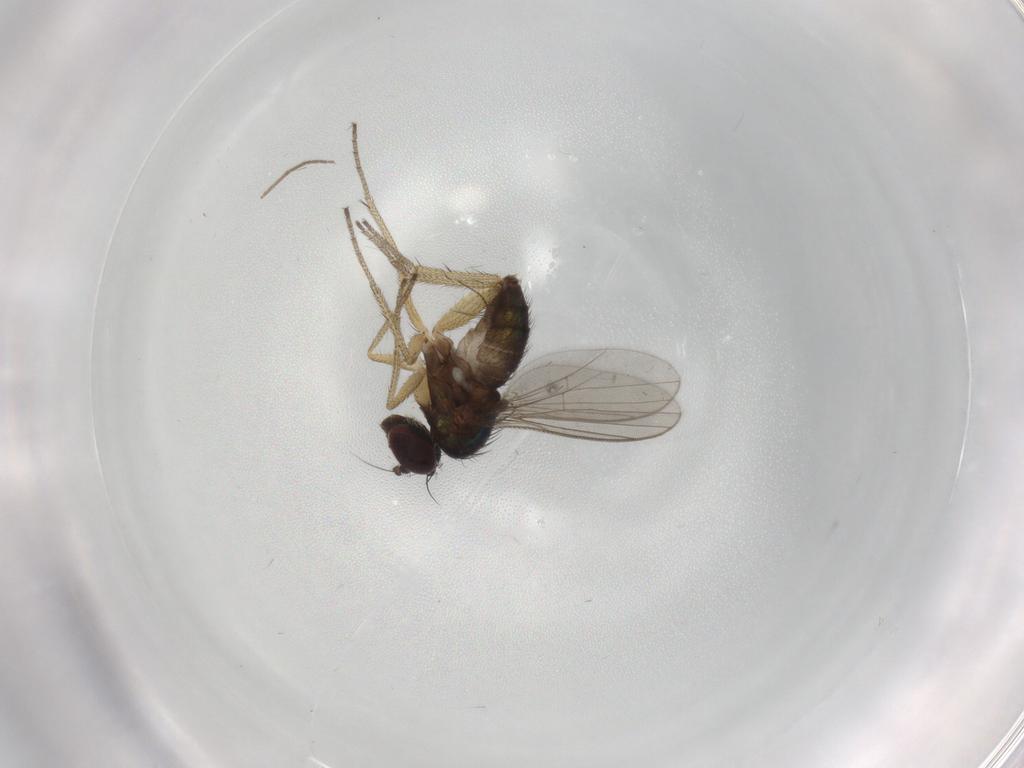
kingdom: Animalia
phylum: Arthropoda
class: Insecta
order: Diptera
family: Chironomidae
